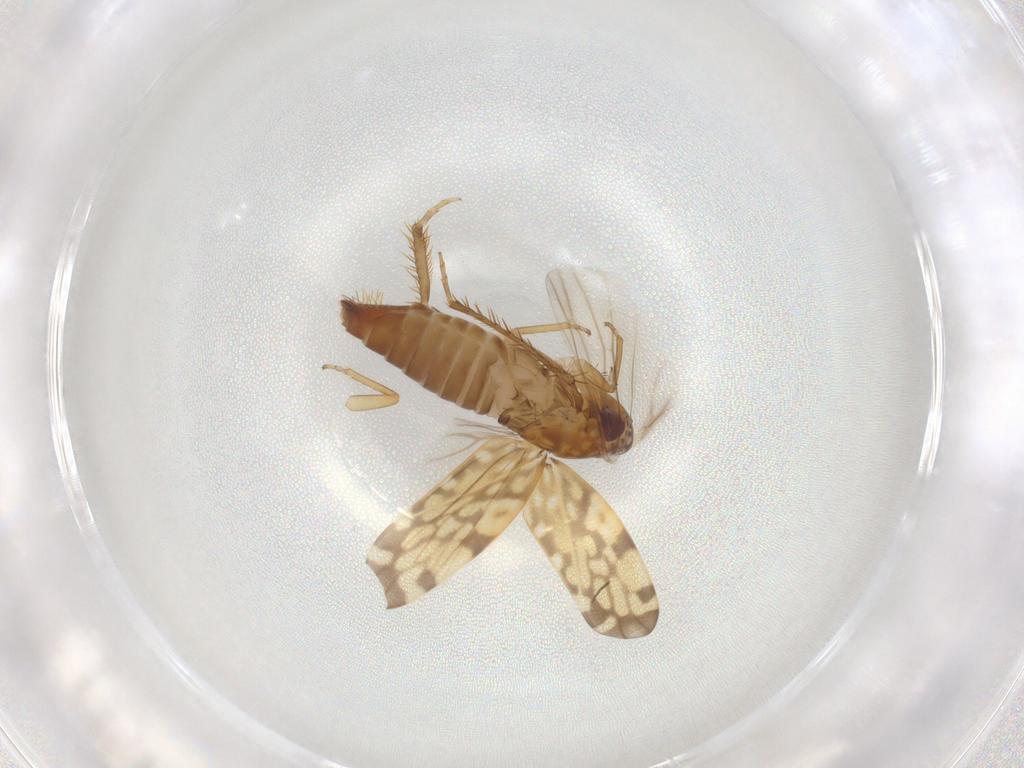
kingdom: Animalia
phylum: Arthropoda
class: Insecta
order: Hemiptera
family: Cicadellidae
